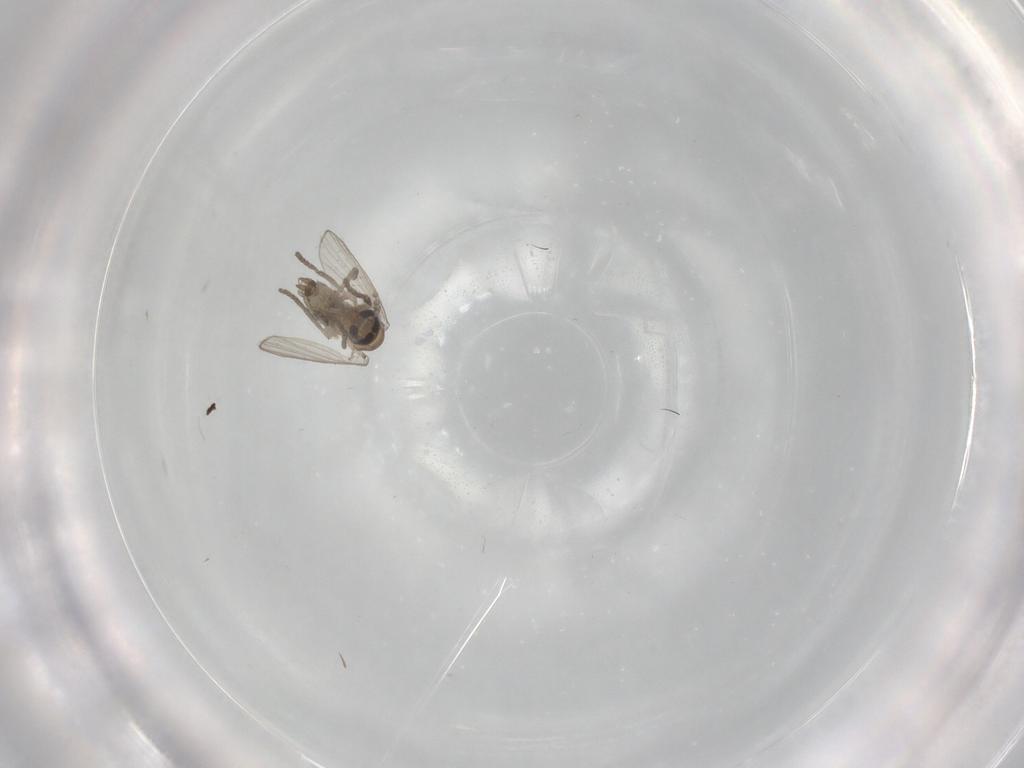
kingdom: Animalia
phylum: Arthropoda
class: Insecta
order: Diptera
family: Psychodidae
